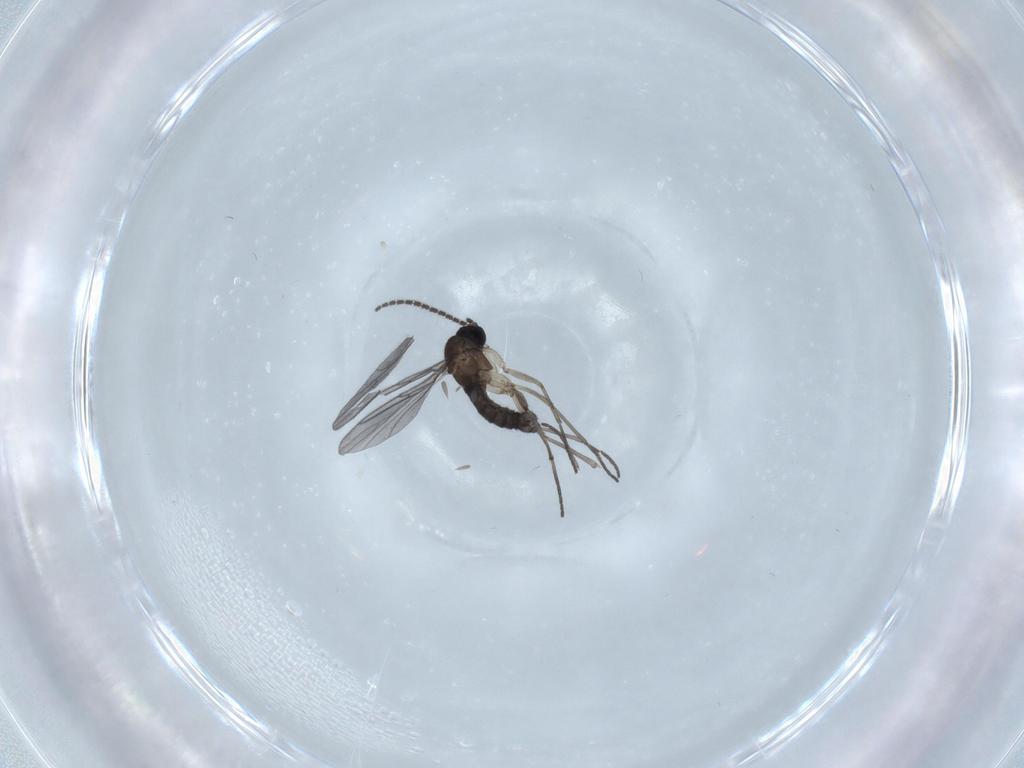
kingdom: Animalia
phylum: Arthropoda
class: Insecta
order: Diptera
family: Sciaridae
